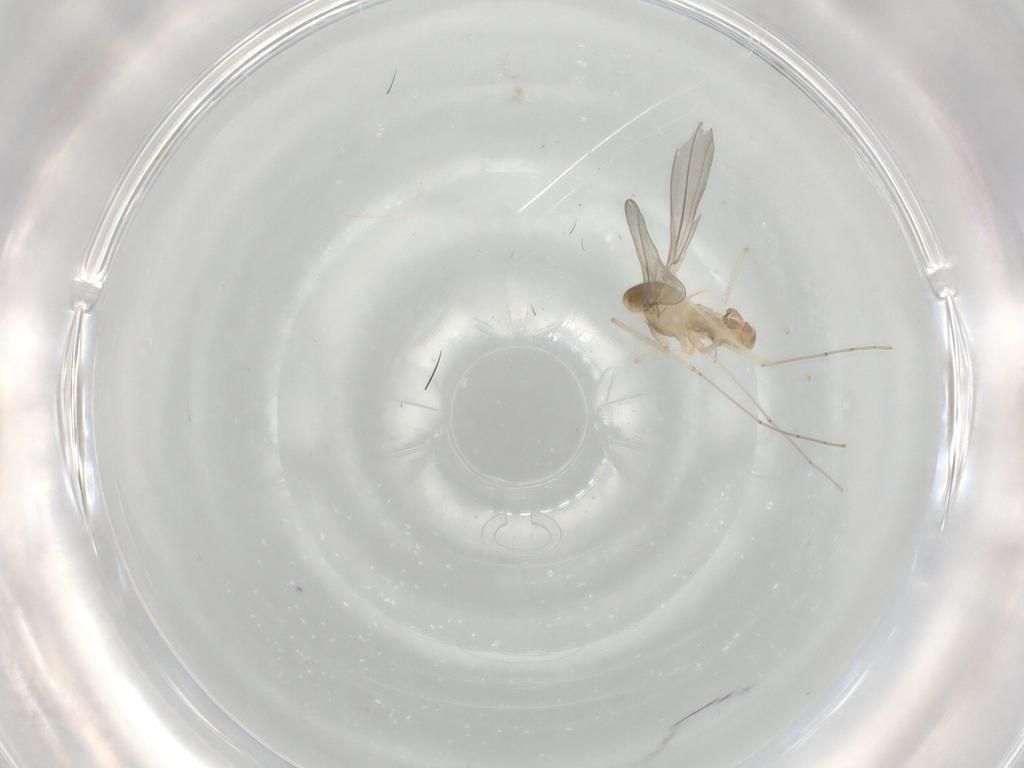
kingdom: Animalia
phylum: Arthropoda
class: Insecta
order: Diptera
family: Cecidomyiidae
